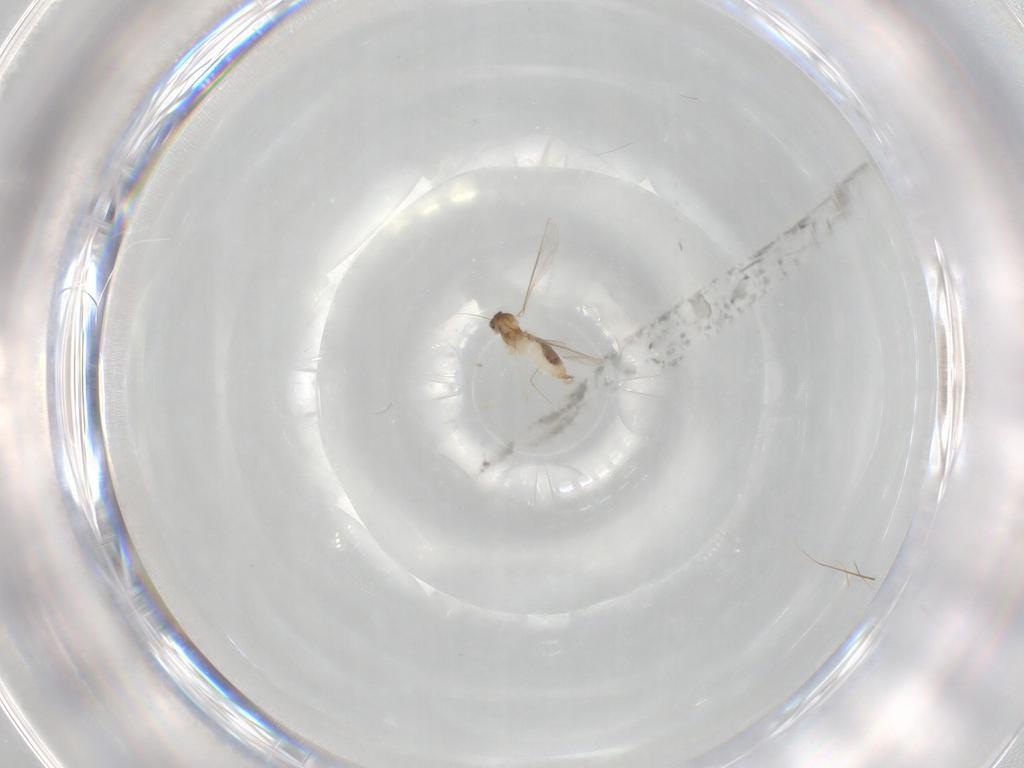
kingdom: Animalia
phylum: Arthropoda
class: Insecta
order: Diptera
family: Cecidomyiidae
